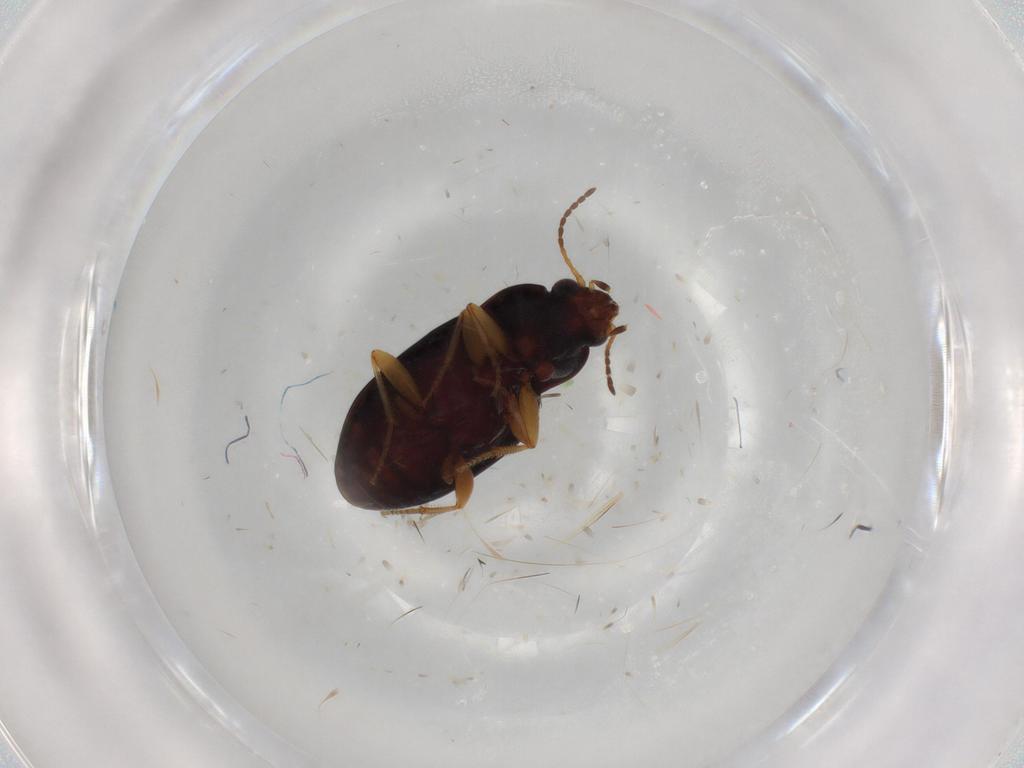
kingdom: Animalia
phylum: Arthropoda
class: Insecta
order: Coleoptera
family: Carabidae
